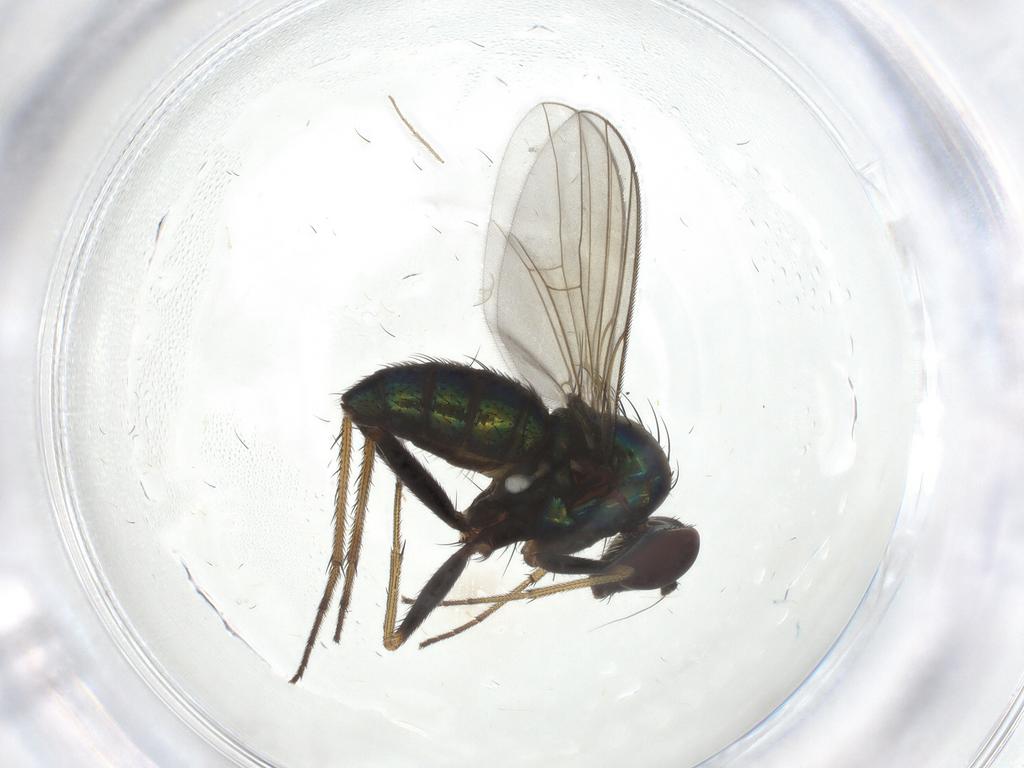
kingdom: Animalia
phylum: Arthropoda
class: Insecta
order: Diptera
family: Dolichopodidae
